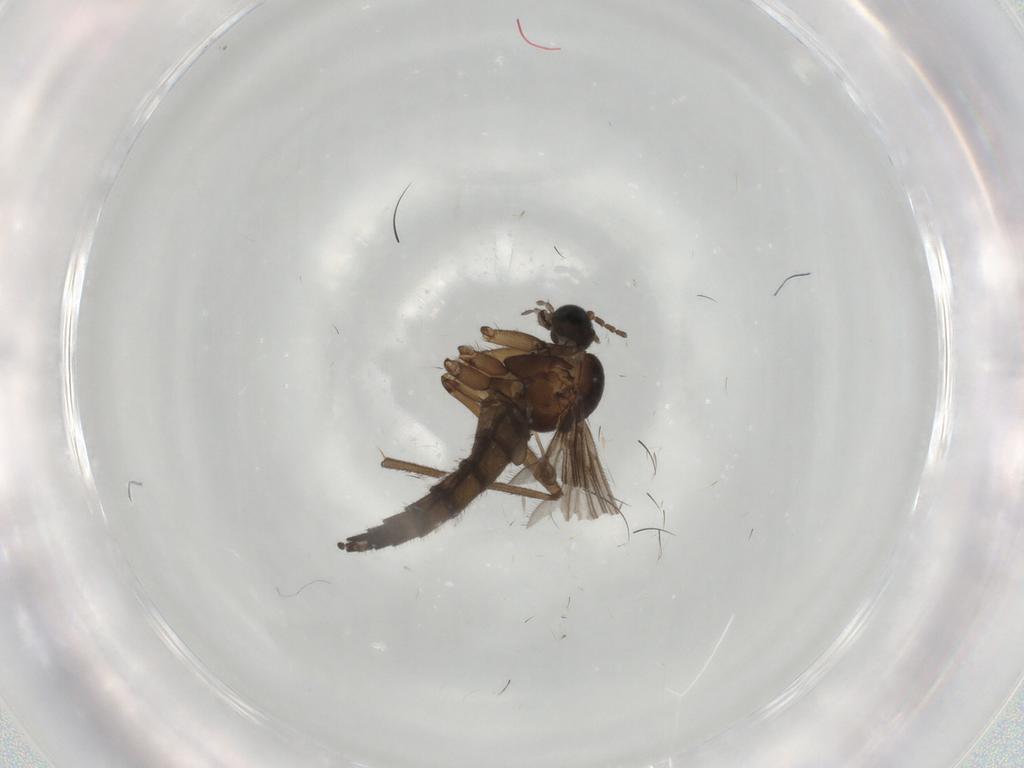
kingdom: Animalia
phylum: Arthropoda
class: Insecta
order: Diptera
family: Sciaridae
